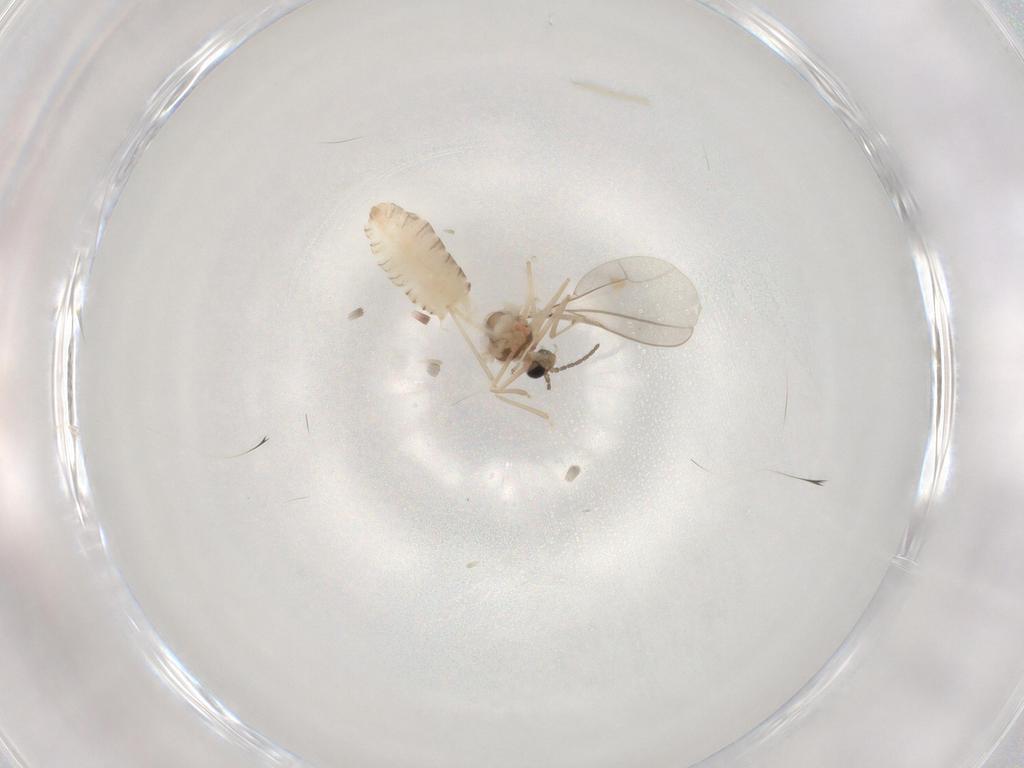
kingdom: Animalia
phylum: Arthropoda
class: Insecta
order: Diptera
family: Cecidomyiidae
